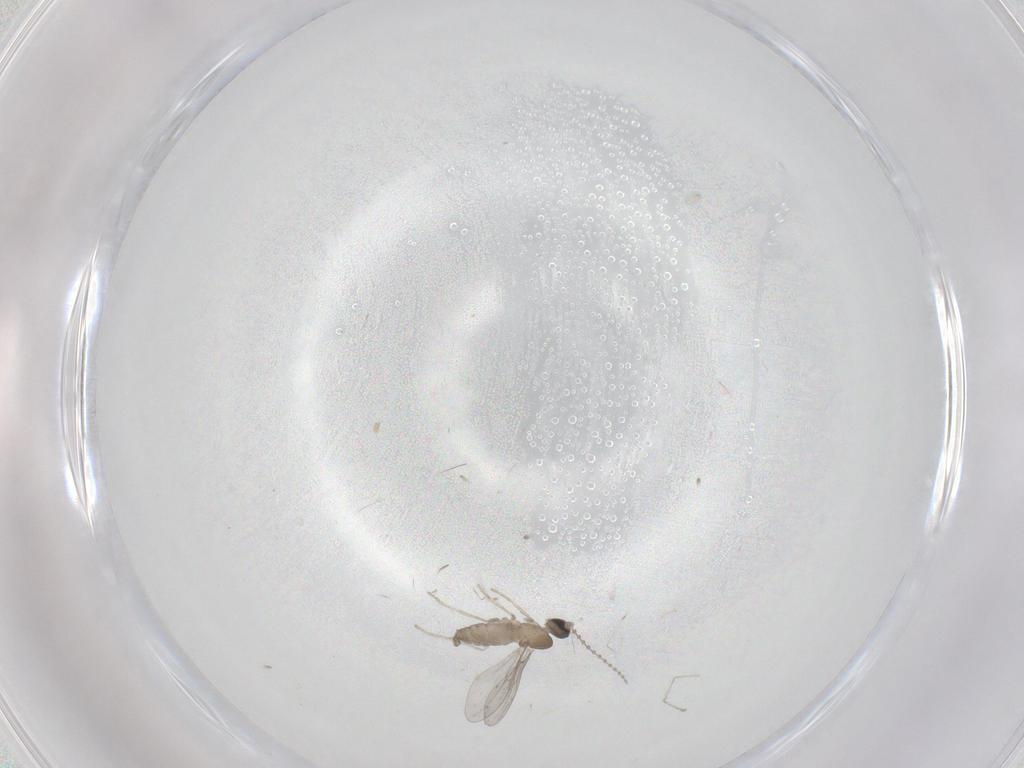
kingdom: Animalia
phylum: Arthropoda
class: Insecta
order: Diptera
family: Cecidomyiidae
